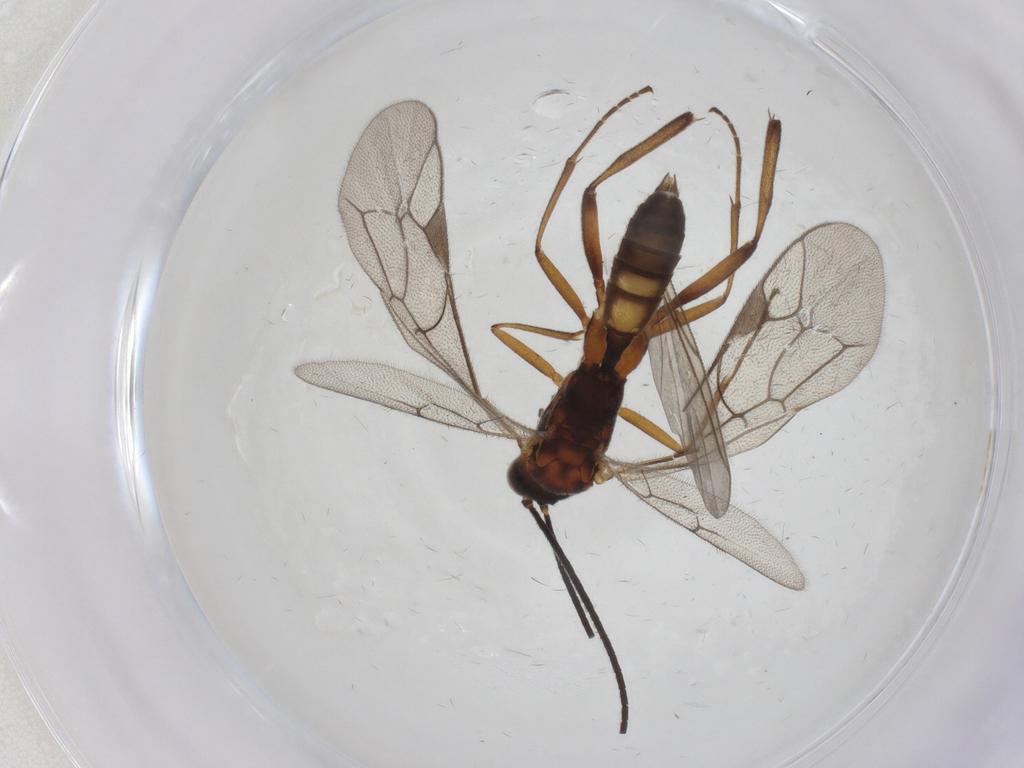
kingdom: Animalia
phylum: Arthropoda
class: Insecta
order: Hymenoptera
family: Ichneumonidae
